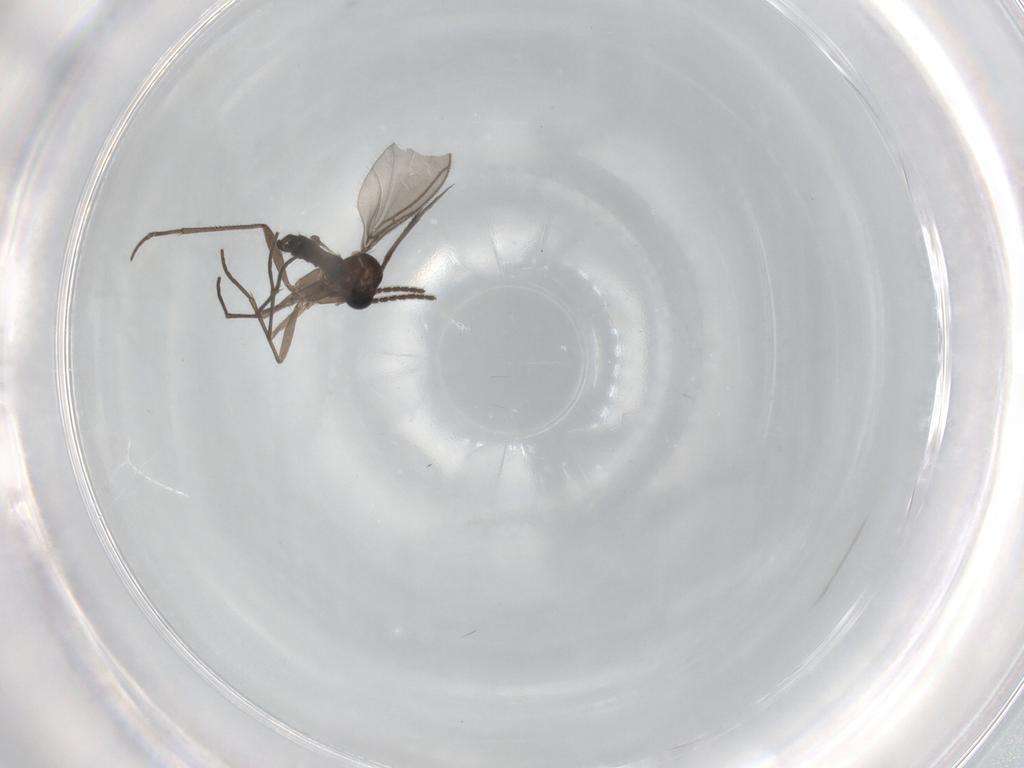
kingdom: Animalia
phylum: Arthropoda
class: Insecta
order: Diptera
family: Sciaridae
